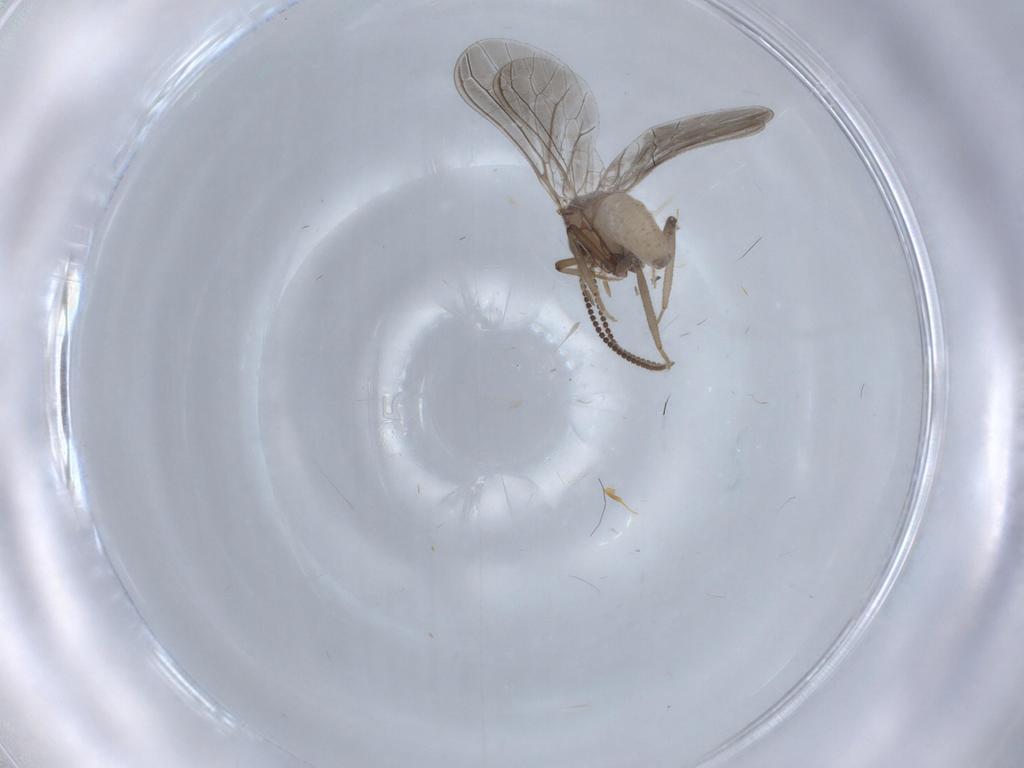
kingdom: Animalia
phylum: Arthropoda
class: Insecta
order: Neuroptera
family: Coniopterygidae
